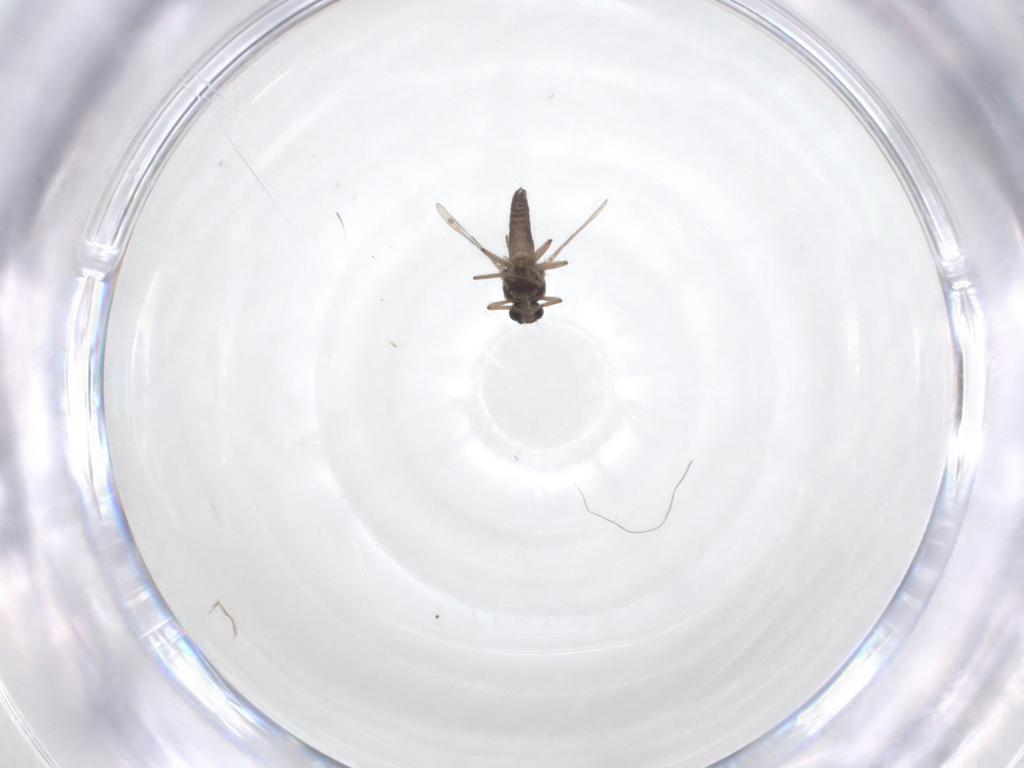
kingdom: Animalia
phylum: Arthropoda
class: Insecta
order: Diptera
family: Ceratopogonidae
